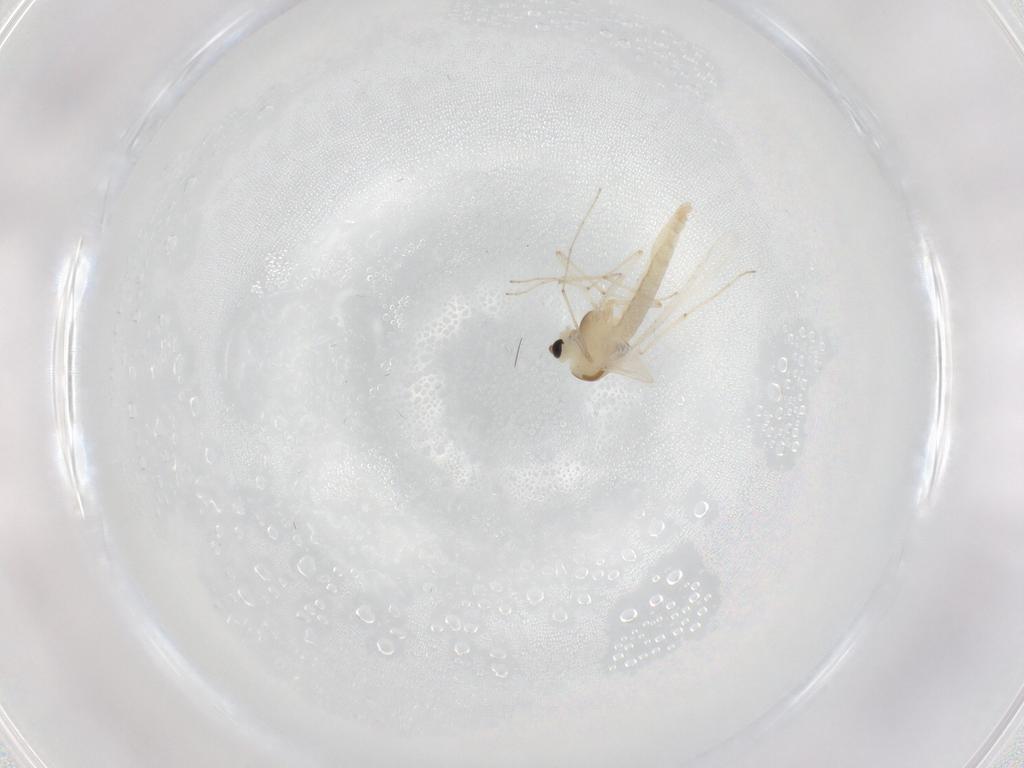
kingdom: Animalia
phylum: Arthropoda
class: Insecta
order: Diptera
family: Chironomidae
